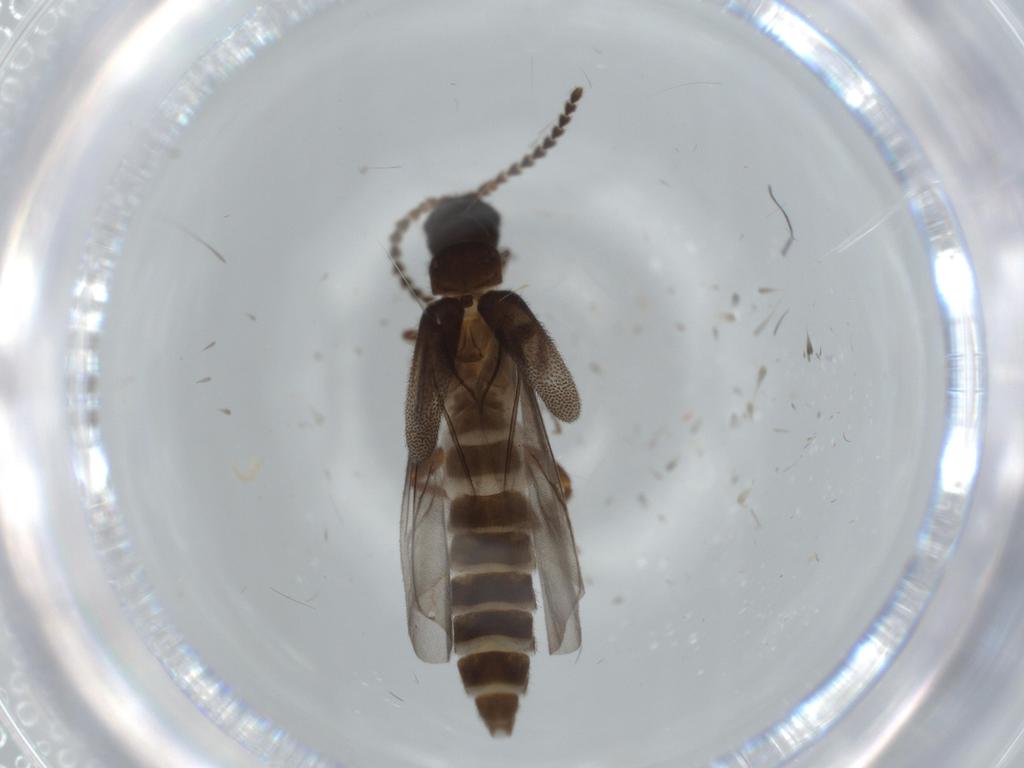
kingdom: Animalia
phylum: Arthropoda
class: Insecta
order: Coleoptera
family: Omethidae
